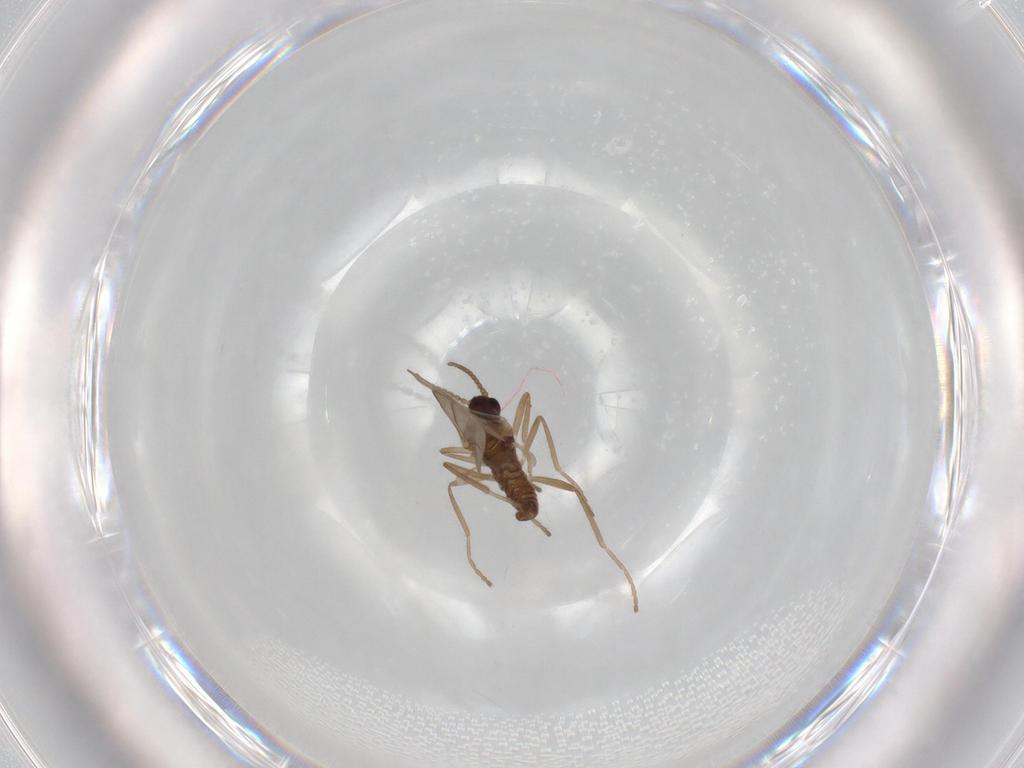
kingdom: Animalia
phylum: Arthropoda
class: Insecta
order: Diptera
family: Cecidomyiidae
